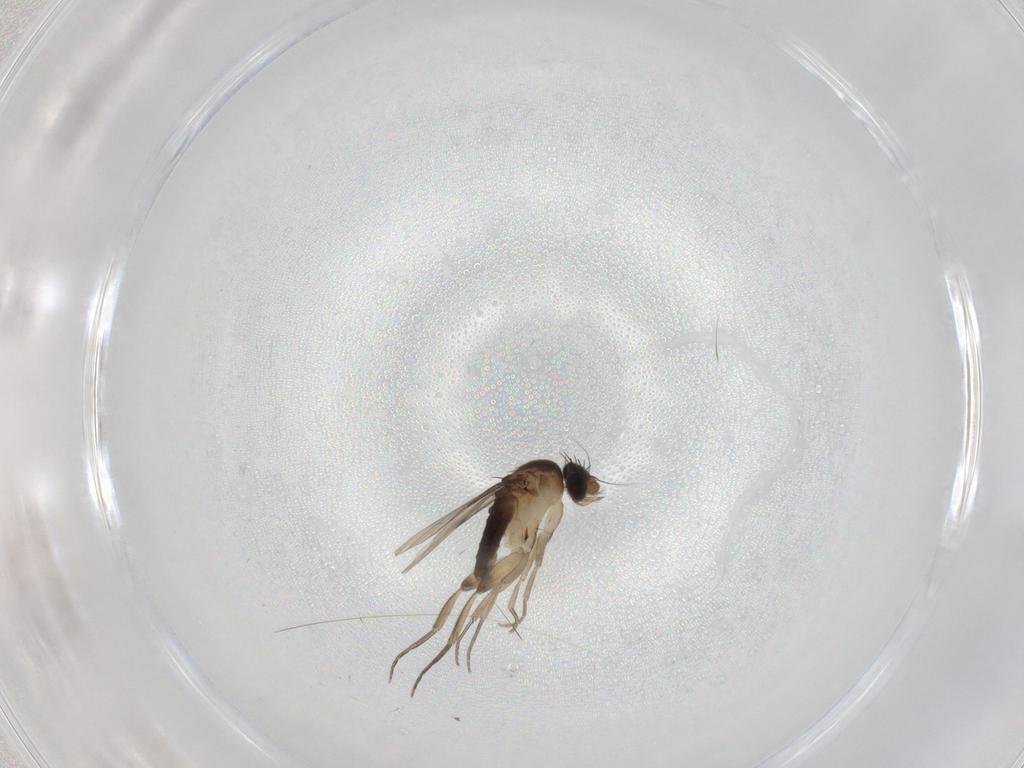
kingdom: Animalia
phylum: Arthropoda
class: Insecta
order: Diptera
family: Phoridae
